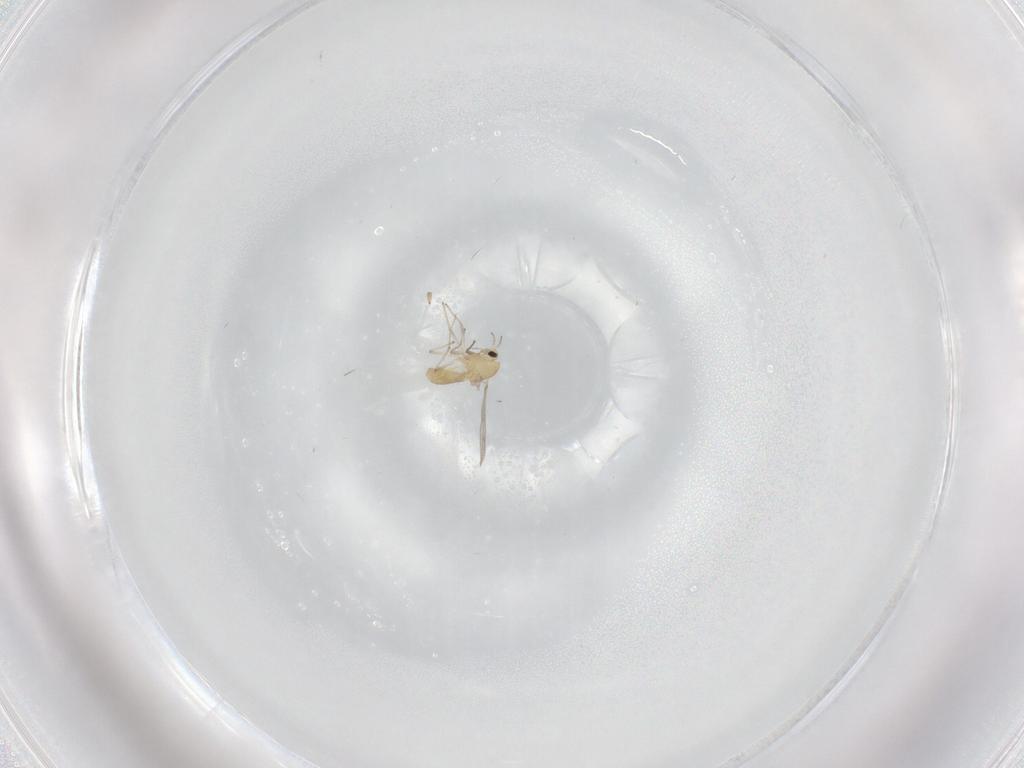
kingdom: Animalia
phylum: Arthropoda
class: Insecta
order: Diptera
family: Chironomidae
